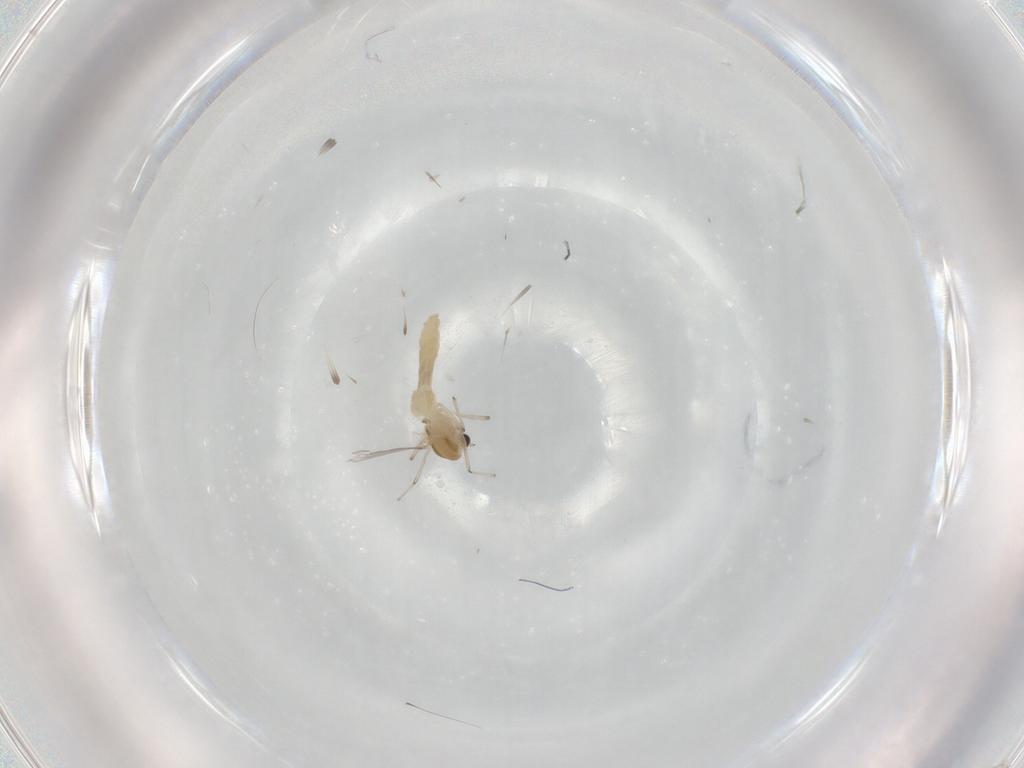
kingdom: Animalia
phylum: Arthropoda
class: Insecta
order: Diptera
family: Chironomidae
